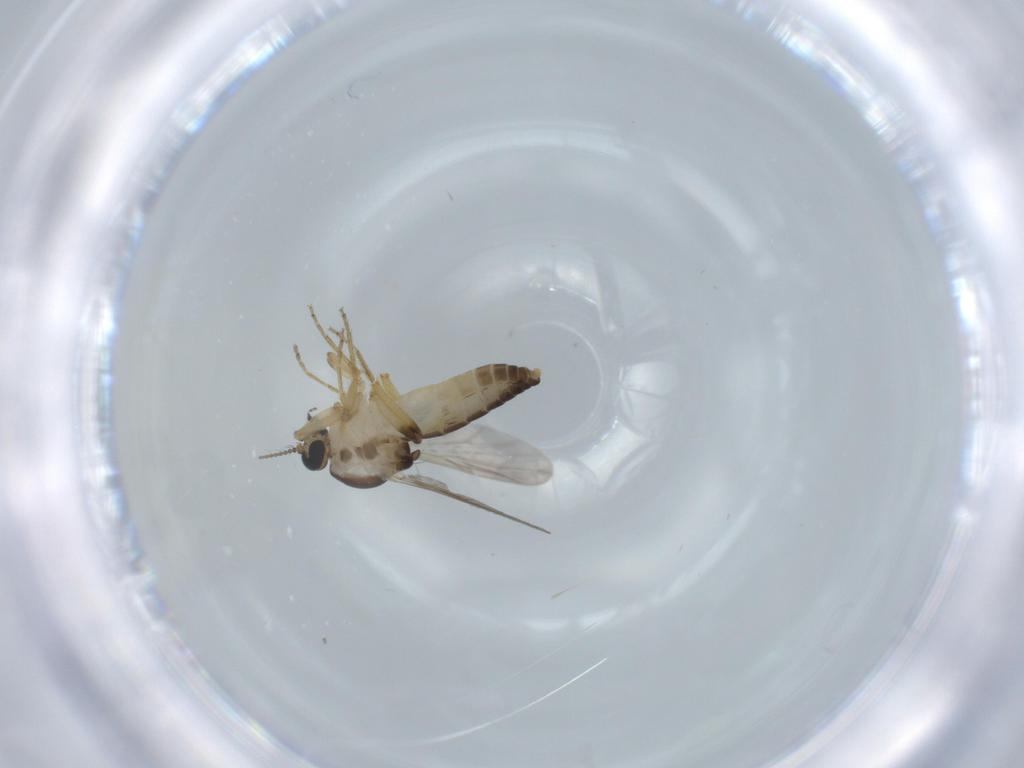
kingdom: Animalia
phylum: Arthropoda
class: Insecta
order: Diptera
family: Ceratopogonidae
